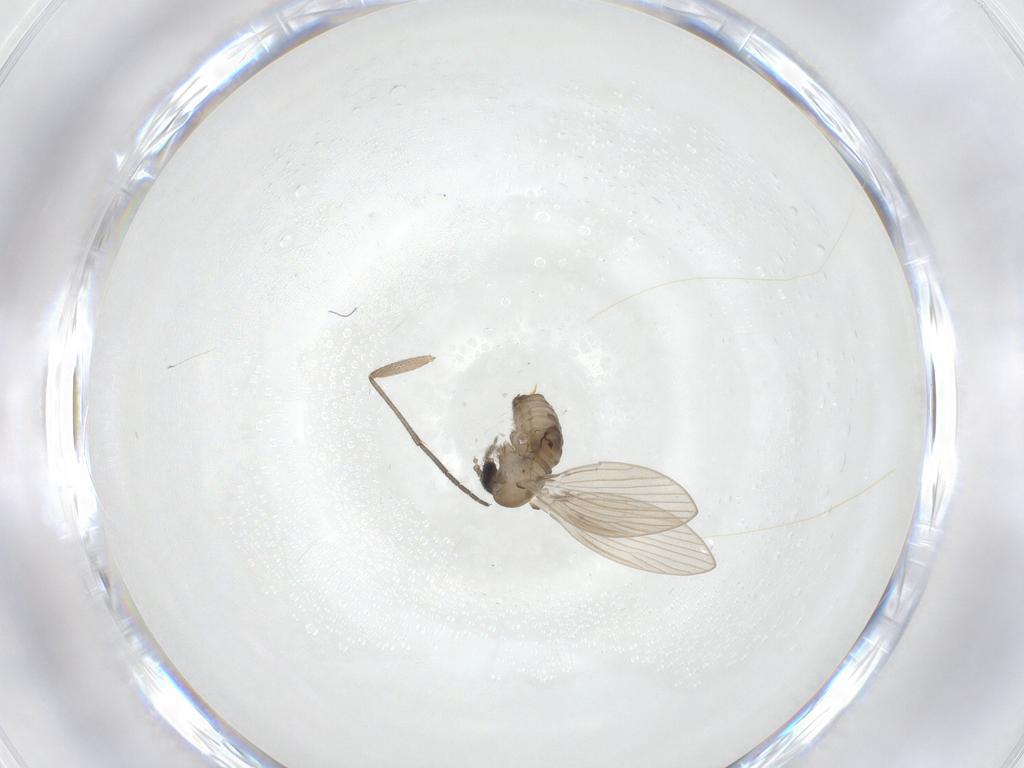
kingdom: Animalia
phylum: Arthropoda
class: Insecta
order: Diptera
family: Psychodidae
